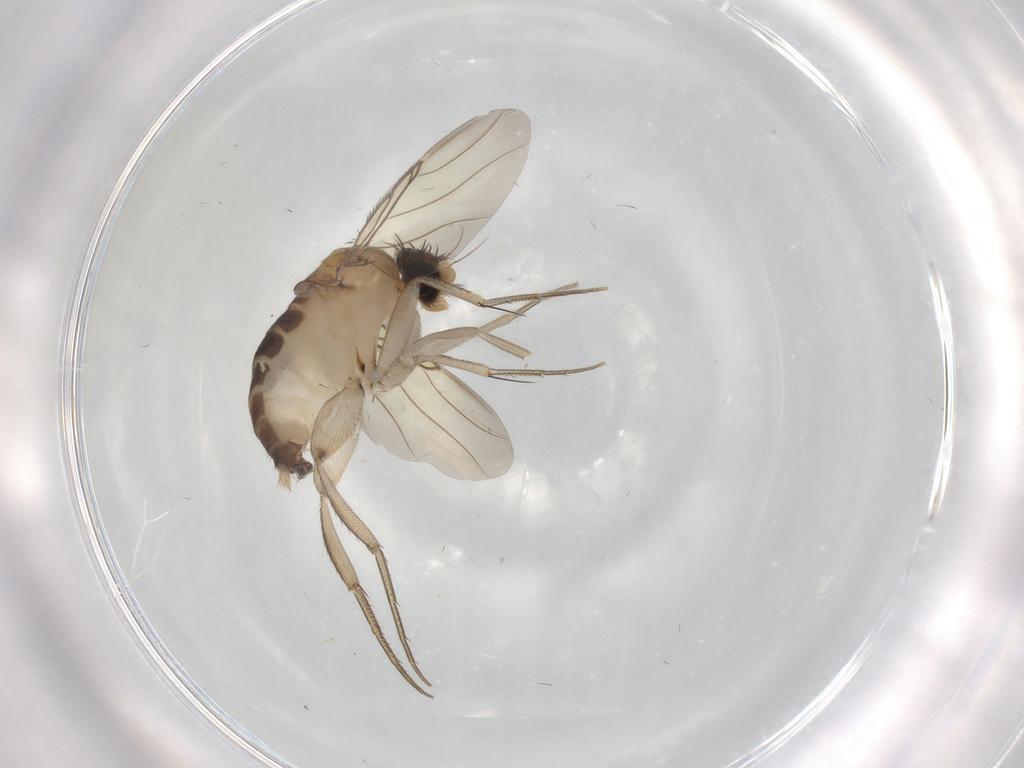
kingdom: Animalia
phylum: Arthropoda
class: Insecta
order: Diptera
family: Phoridae
